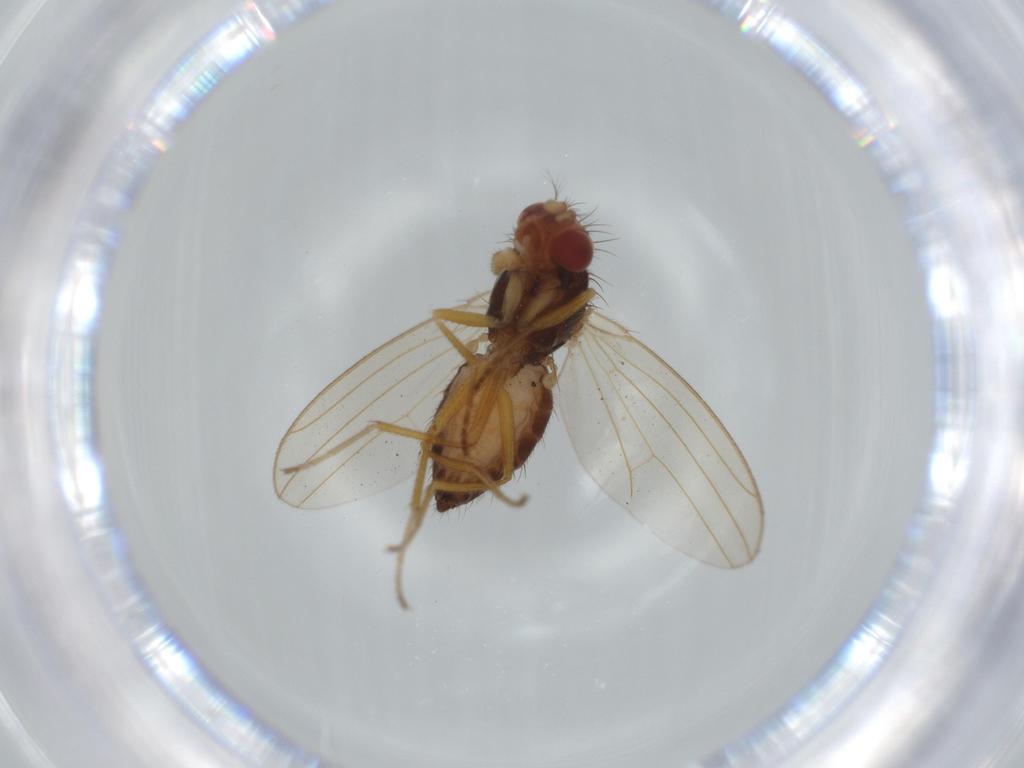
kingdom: Animalia
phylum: Arthropoda
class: Insecta
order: Diptera
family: Drosophilidae
